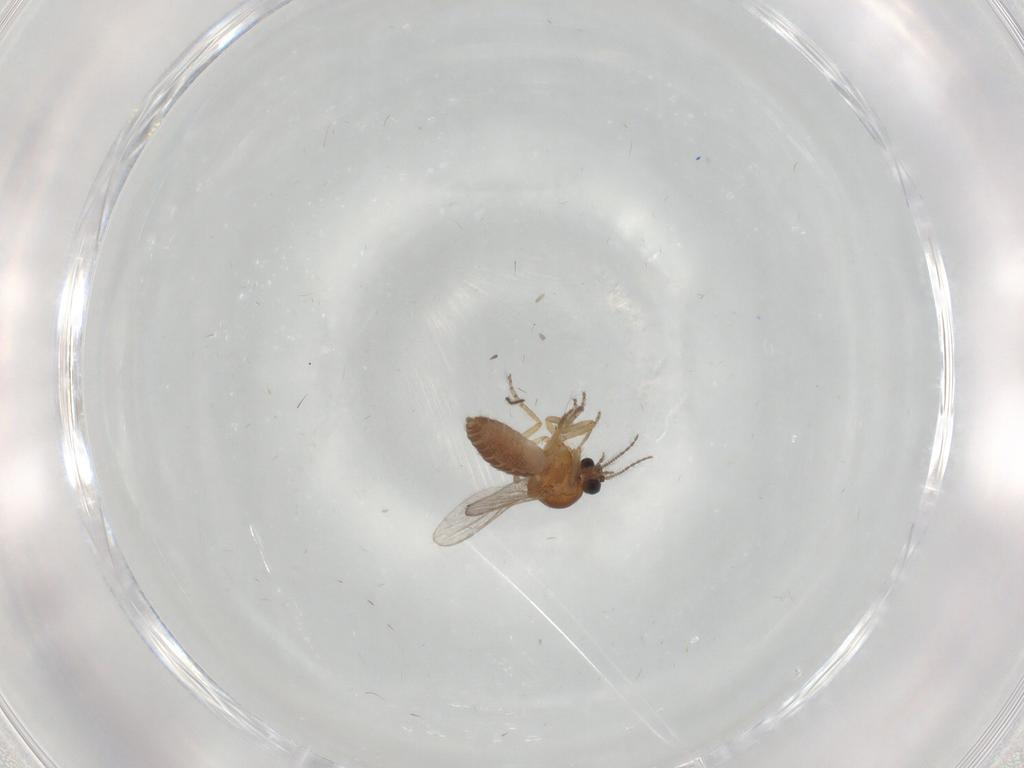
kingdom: Animalia
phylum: Arthropoda
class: Insecta
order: Diptera
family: Ceratopogonidae
